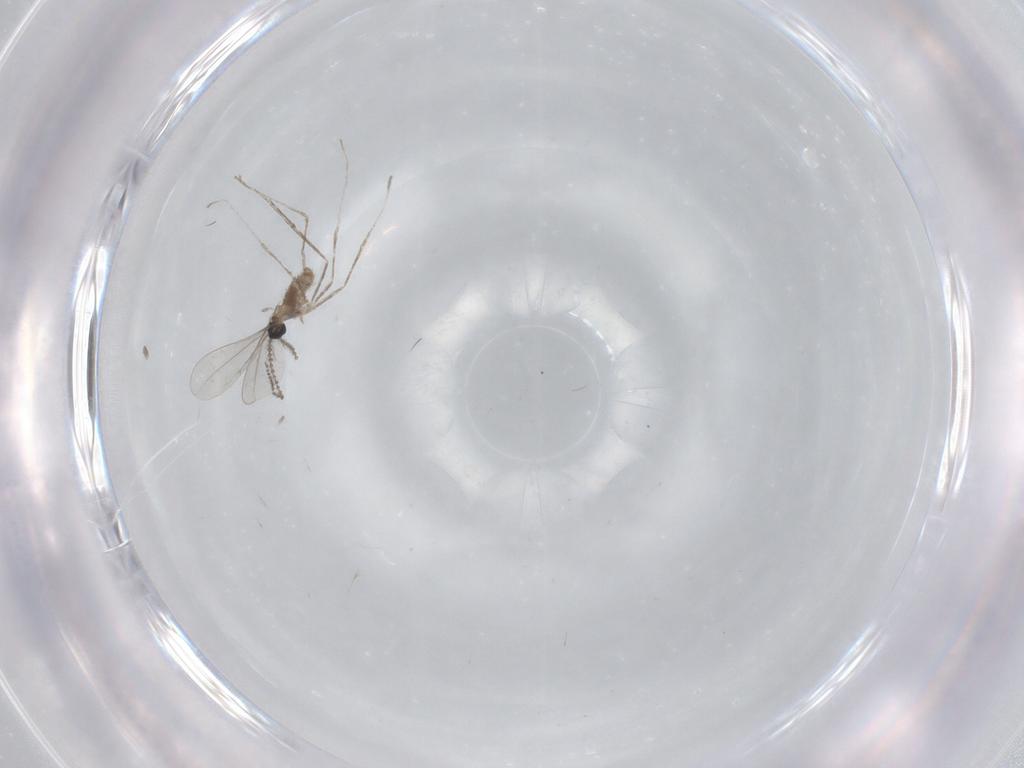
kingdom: Animalia
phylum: Arthropoda
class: Insecta
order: Diptera
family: Cecidomyiidae
